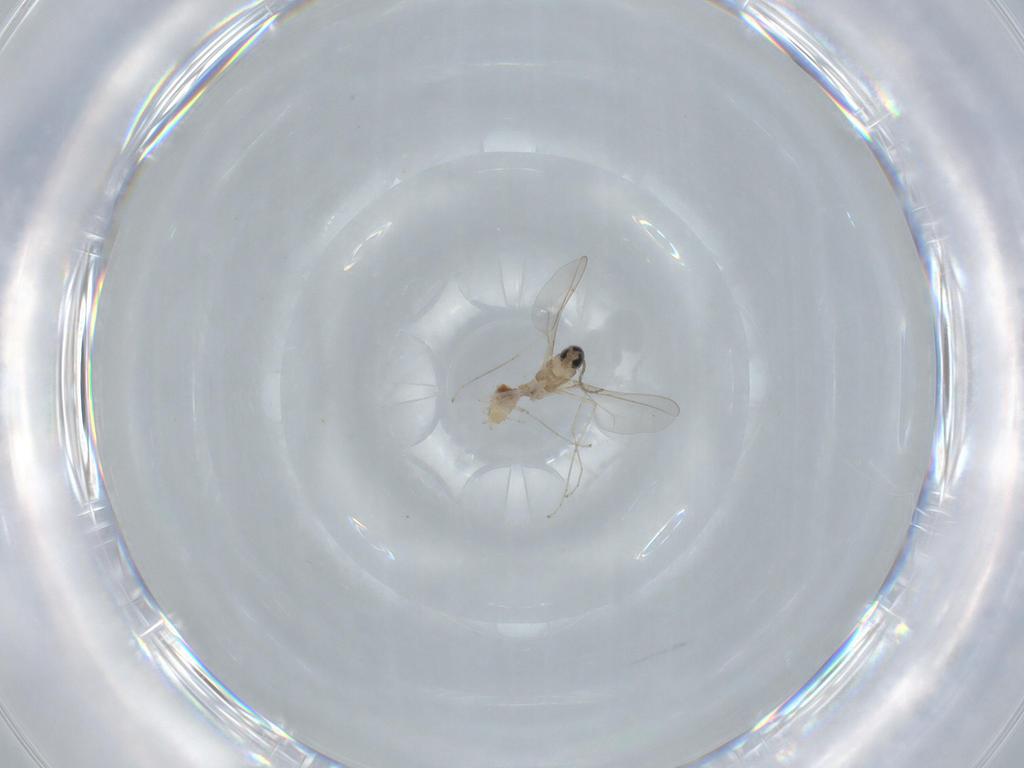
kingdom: Animalia
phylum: Arthropoda
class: Insecta
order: Diptera
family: Cecidomyiidae
